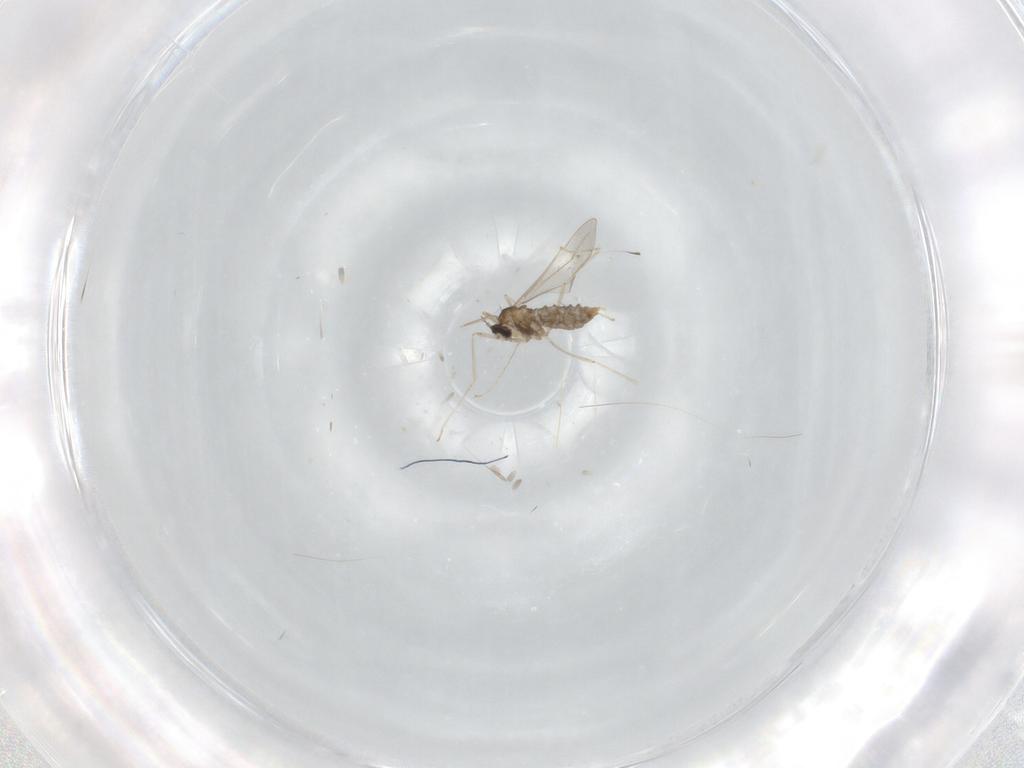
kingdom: Animalia
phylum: Arthropoda
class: Insecta
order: Diptera
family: Cecidomyiidae
